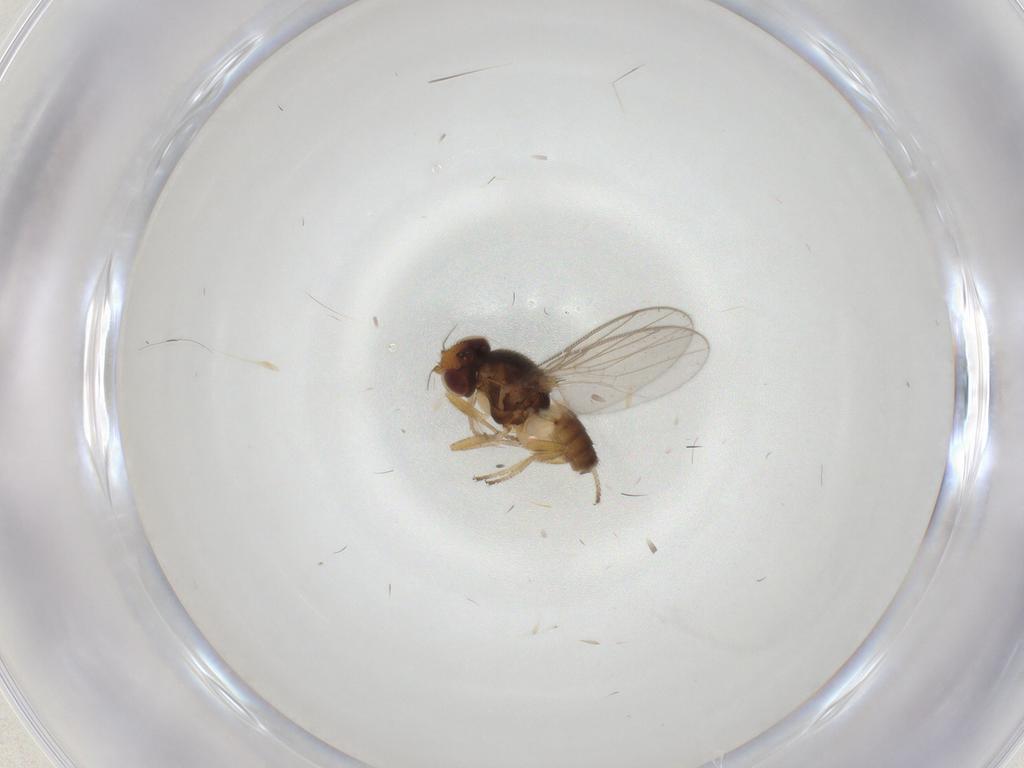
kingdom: Animalia
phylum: Arthropoda
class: Insecta
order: Diptera
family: Chloropidae
